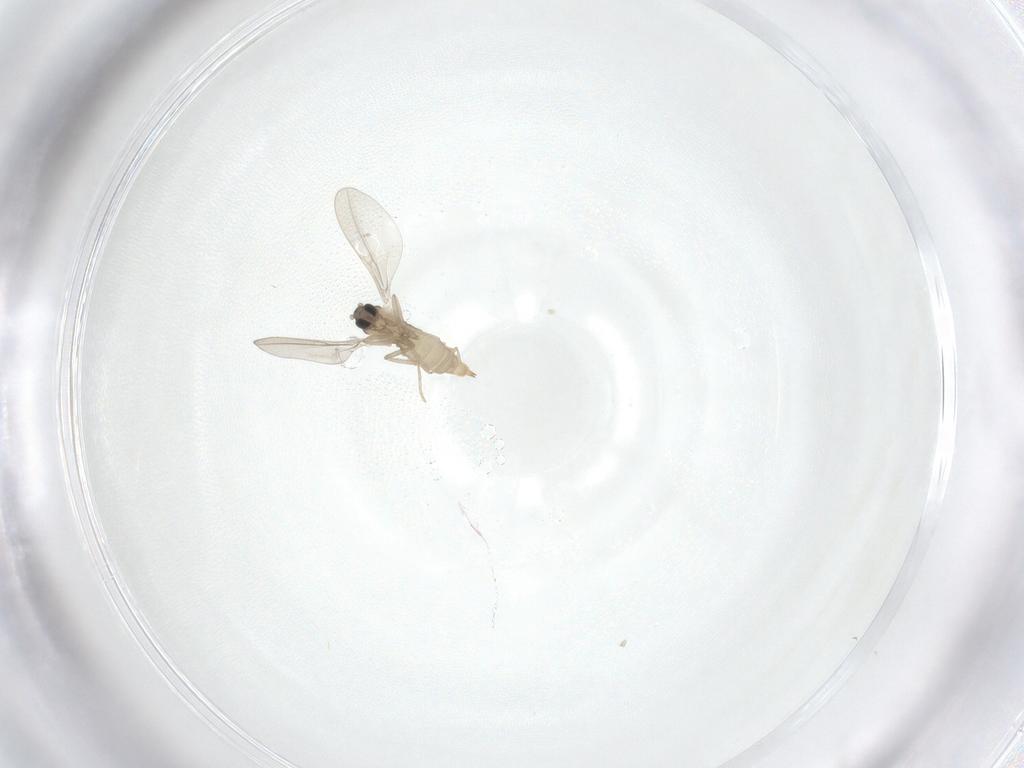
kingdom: Animalia
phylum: Arthropoda
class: Insecta
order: Diptera
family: Cecidomyiidae
